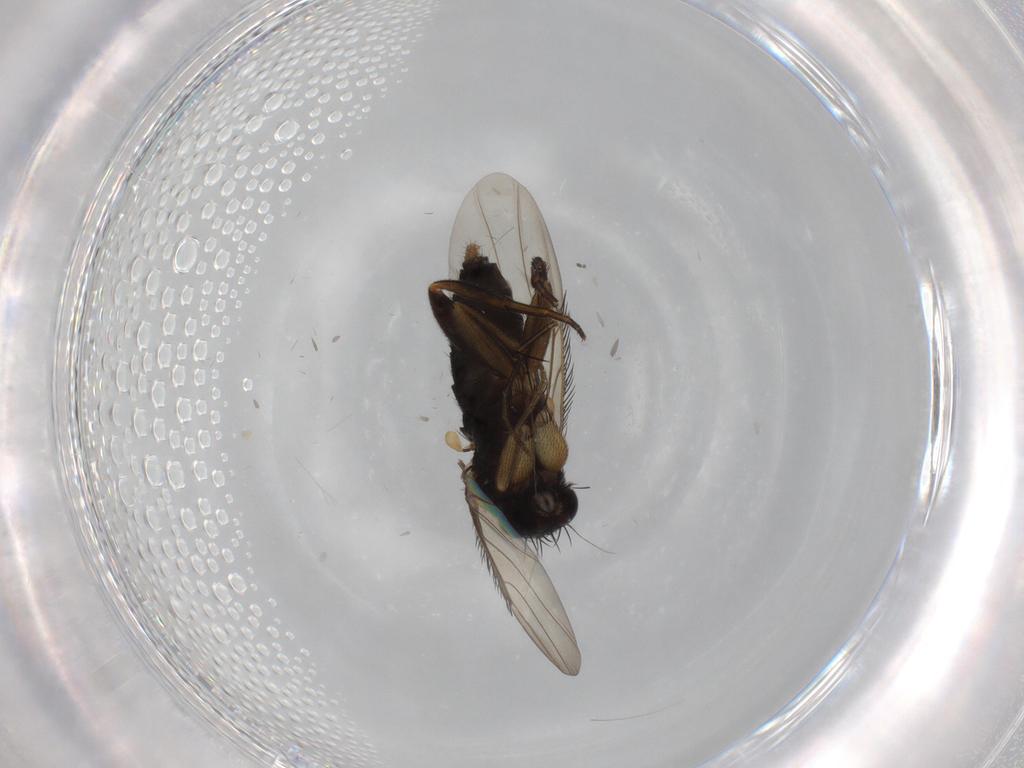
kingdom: Animalia
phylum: Arthropoda
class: Insecta
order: Diptera
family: Phoridae
